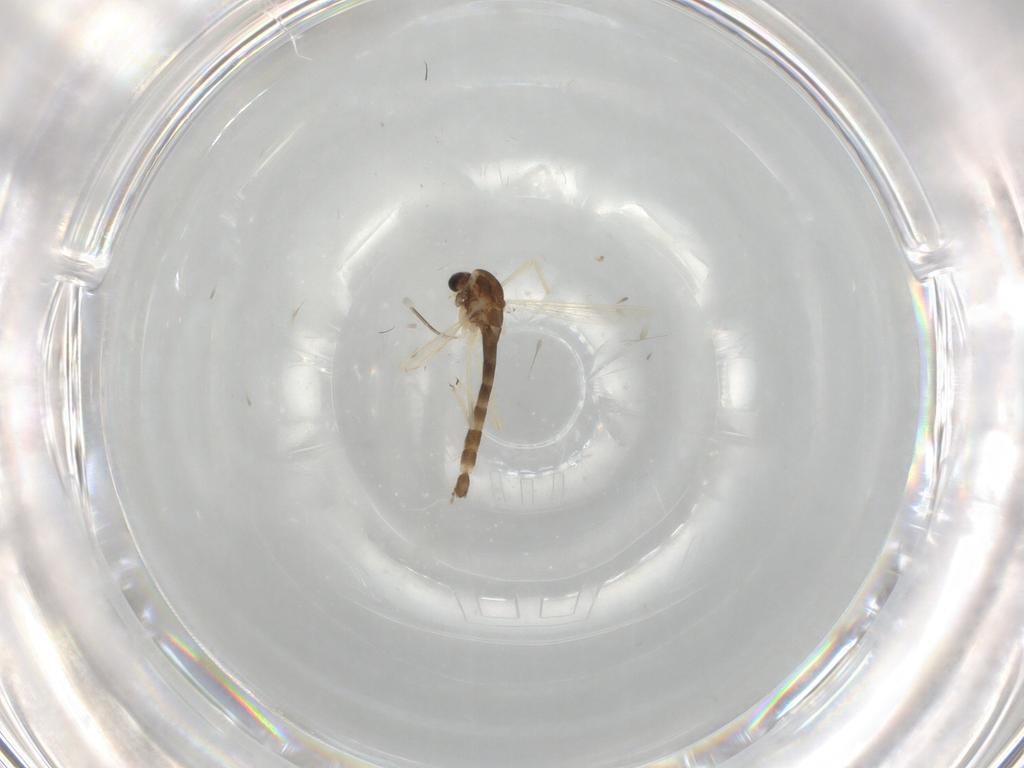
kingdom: Animalia
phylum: Arthropoda
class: Insecta
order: Diptera
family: Chironomidae
